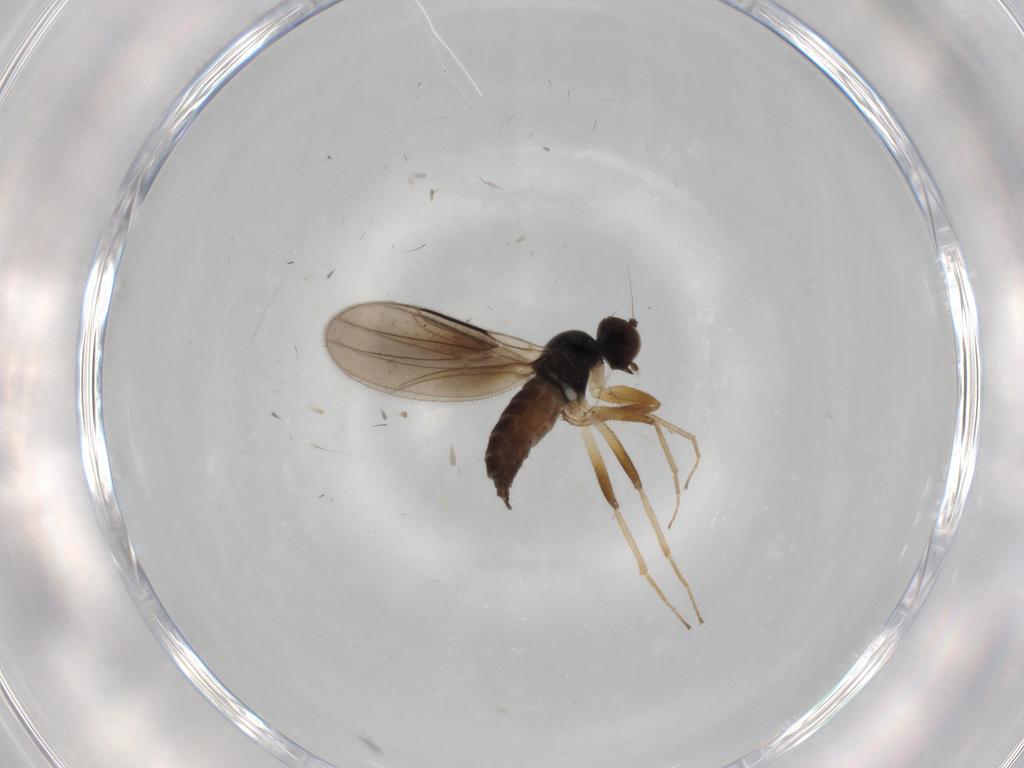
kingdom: Animalia
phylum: Arthropoda
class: Insecta
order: Diptera
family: Hybotidae
